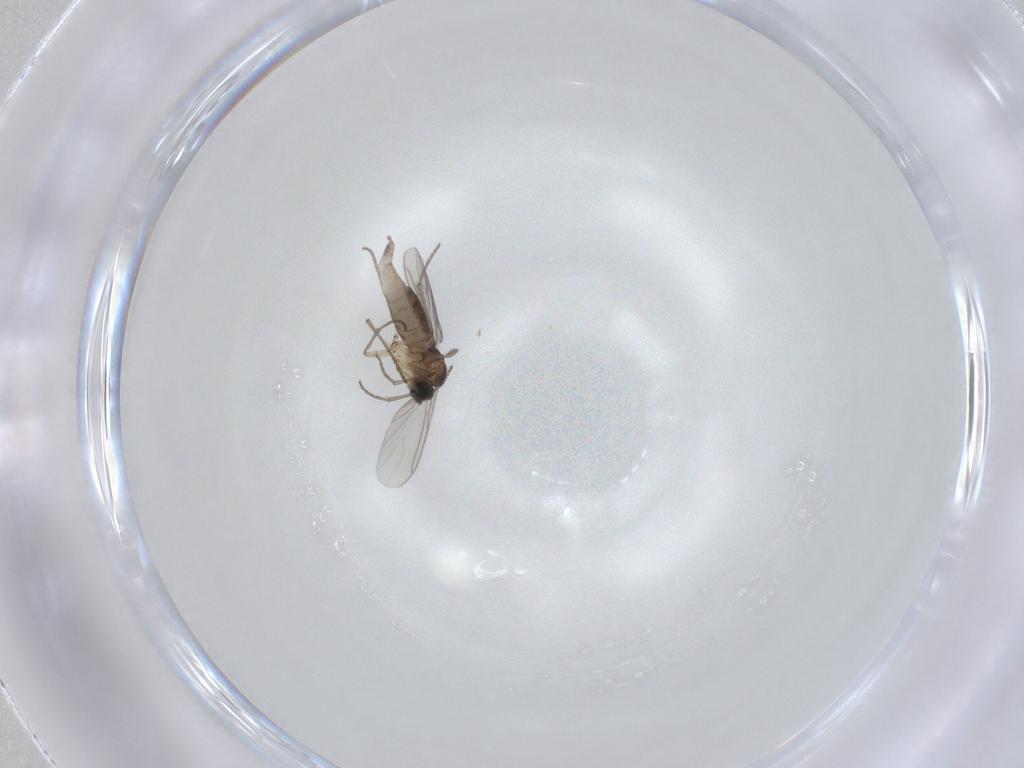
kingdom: Animalia
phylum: Arthropoda
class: Insecta
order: Diptera
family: Sciaridae
